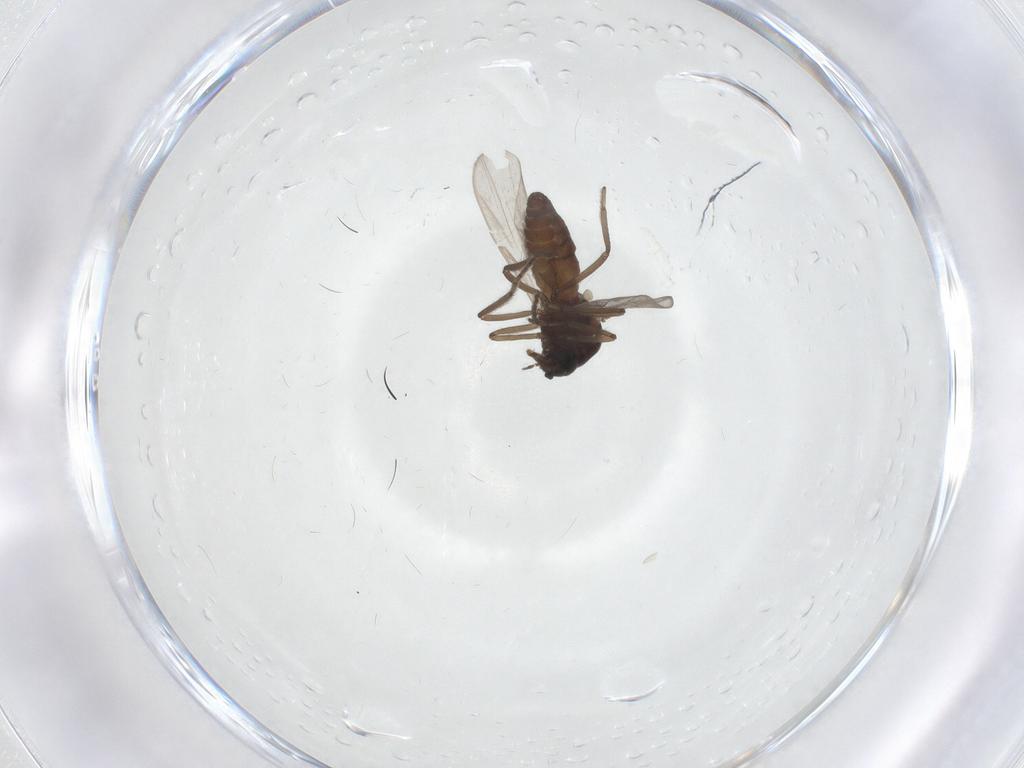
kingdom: Animalia
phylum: Arthropoda
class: Insecta
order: Diptera
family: Ceratopogonidae
